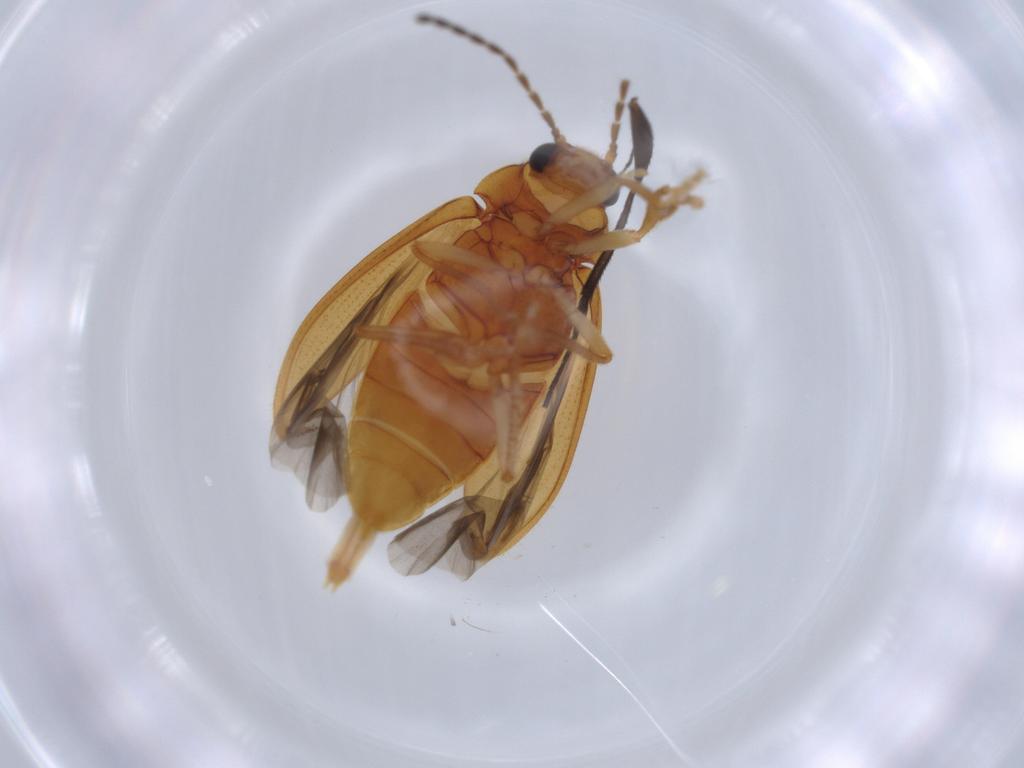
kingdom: Animalia
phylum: Arthropoda
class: Insecta
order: Coleoptera
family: Ptilodactylidae
